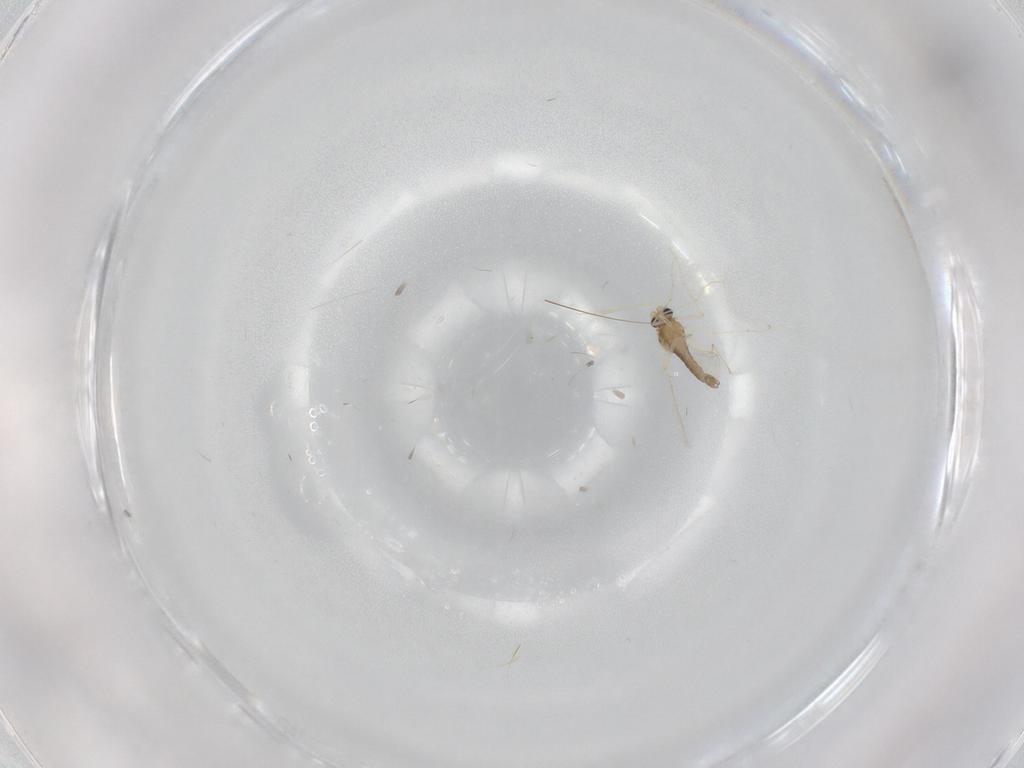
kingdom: Animalia
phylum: Arthropoda
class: Insecta
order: Diptera
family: Chironomidae
